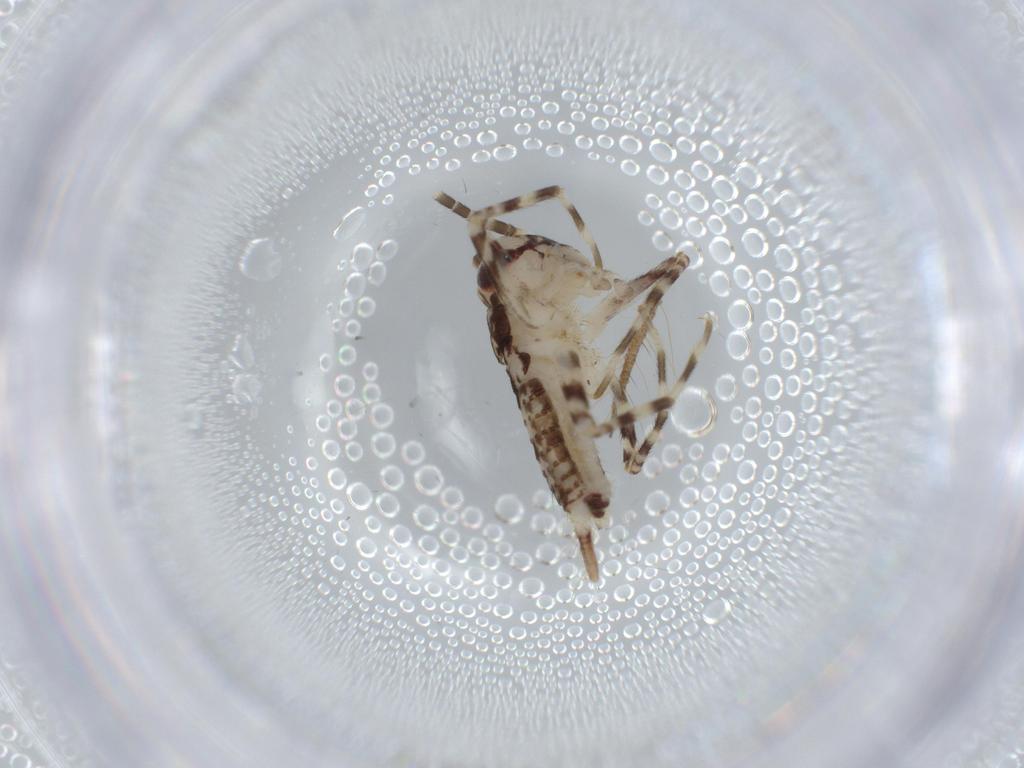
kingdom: Animalia
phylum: Arthropoda
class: Insecta
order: Orthoptera
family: Gryllidae
